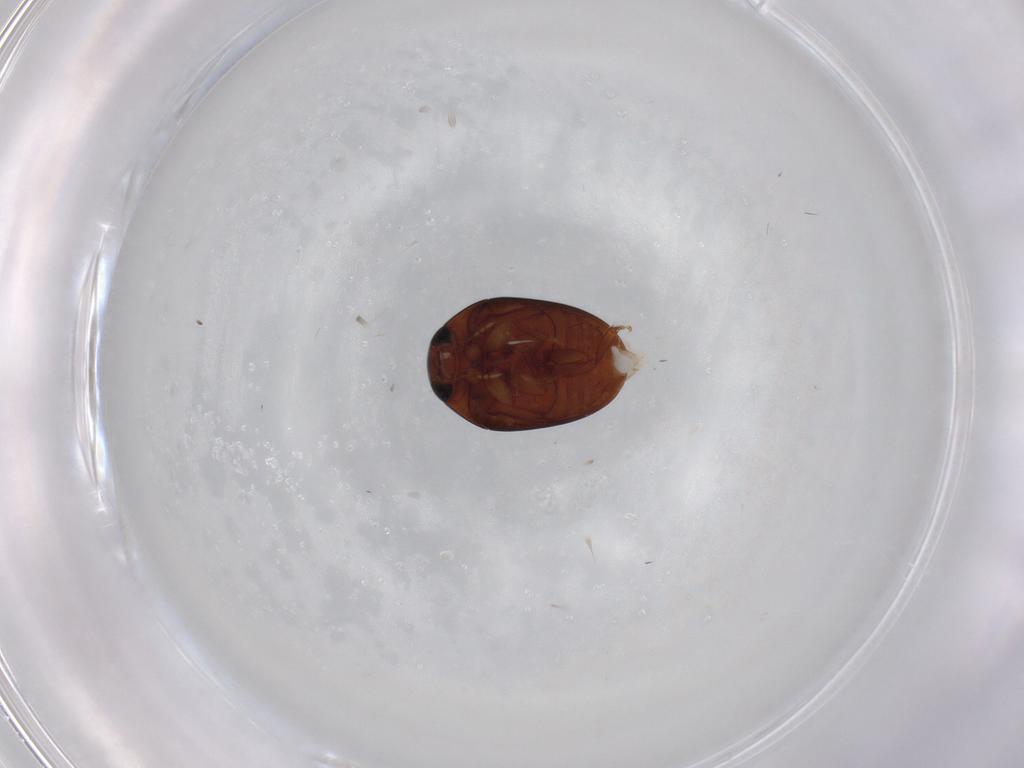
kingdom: Animalia
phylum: Arthropoda
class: Insecta
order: Coleoptera
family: Phalacridae
